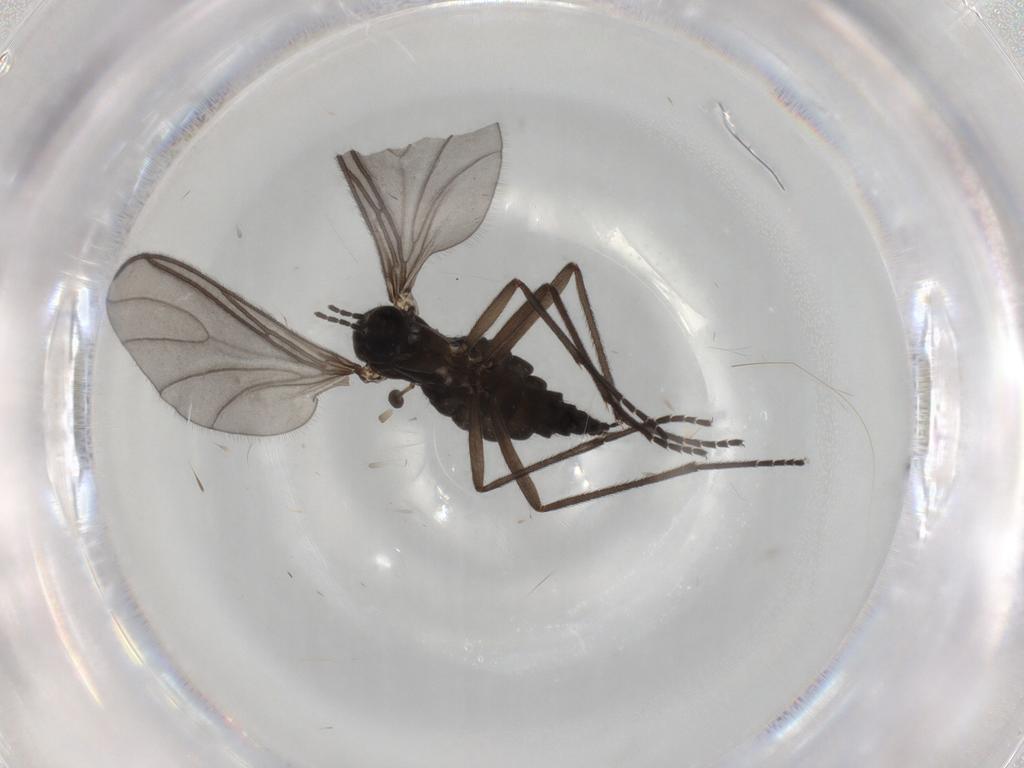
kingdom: Animalia
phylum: Arthropoda
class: Insecta
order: Diptera
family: Sciaridae
